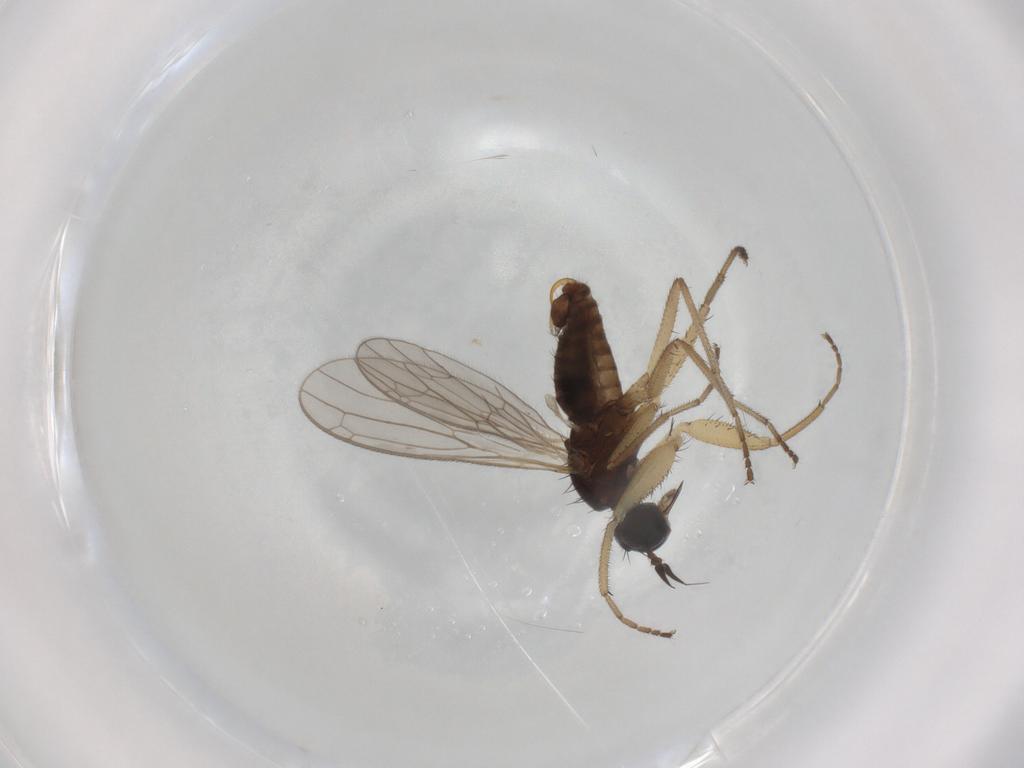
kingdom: Animalia
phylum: Arthropoda
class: Insecta
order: Diptera
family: Empididae
